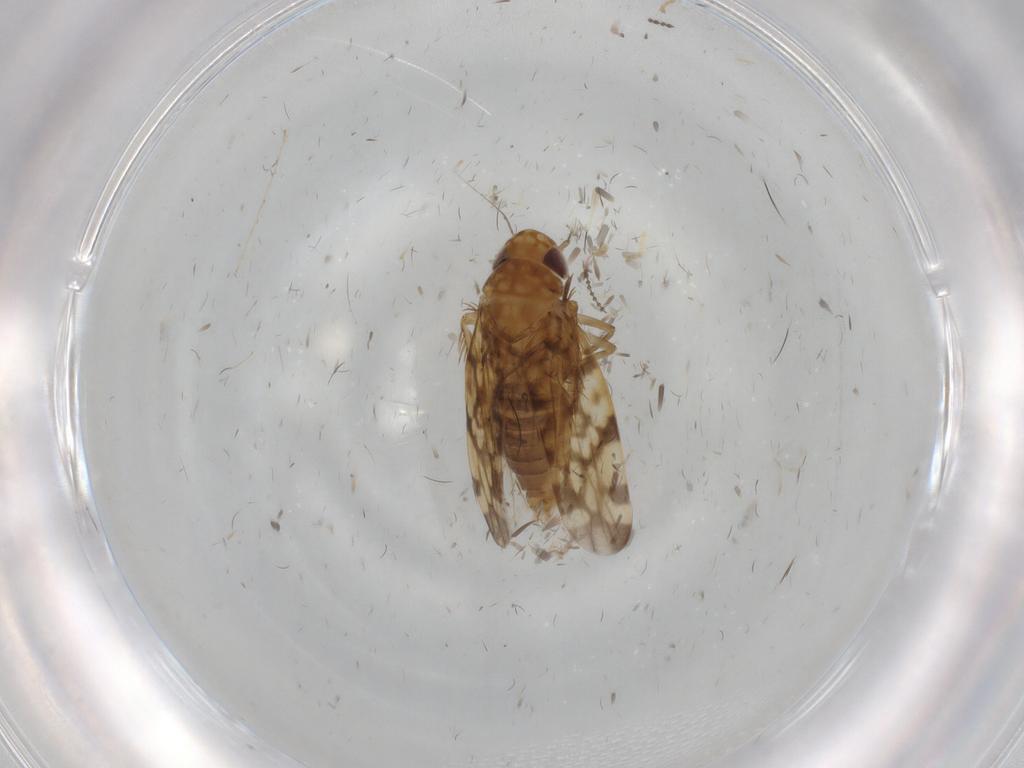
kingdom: Animalia
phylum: Arthropoda
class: Insecta
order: Hemiptera
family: Cicadellidae
